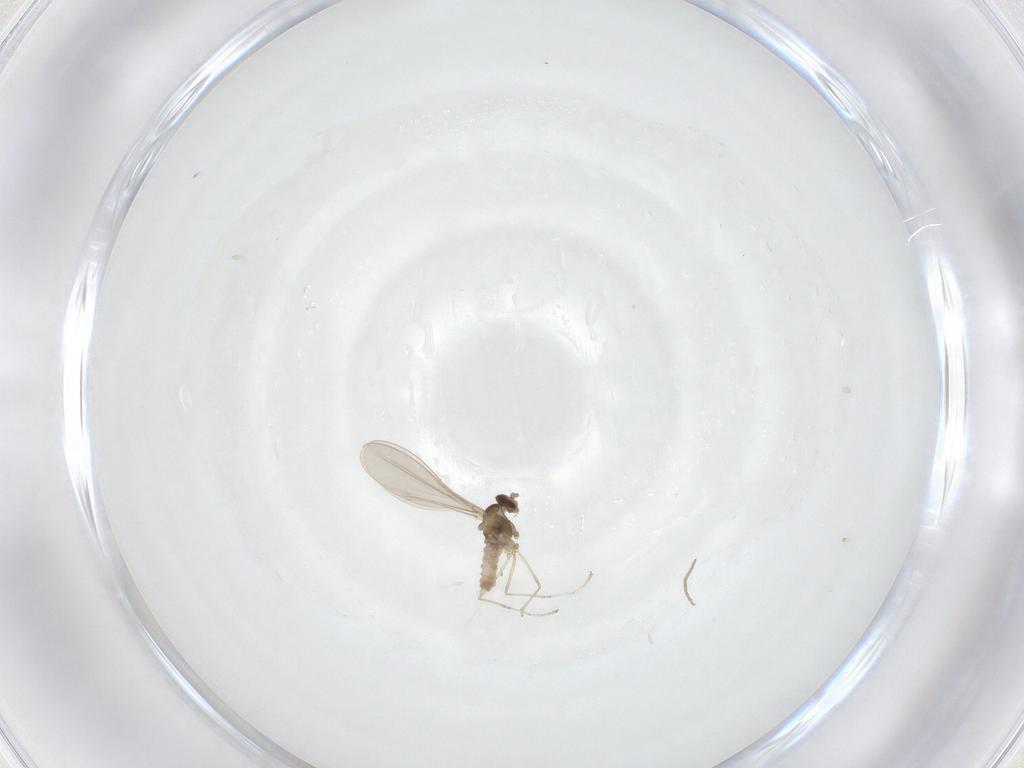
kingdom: Animalia
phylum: Arthropoda
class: Insecta
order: Diptera
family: Cecidomyiidae
